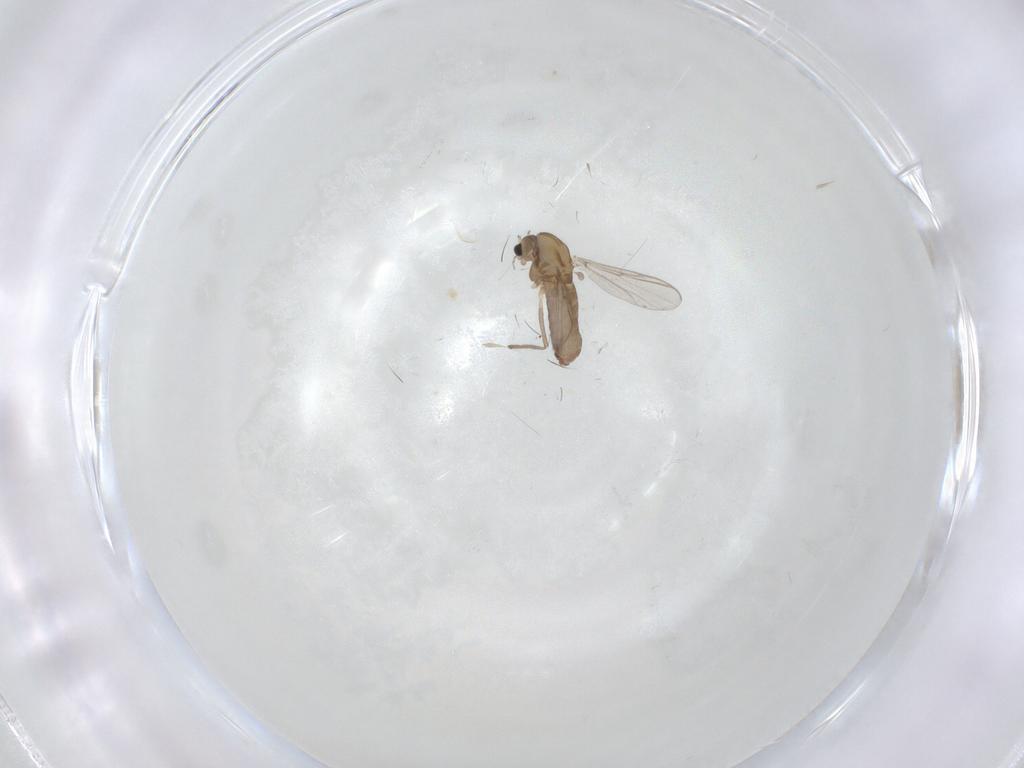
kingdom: Animalia
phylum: Arthropoda
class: Insecta
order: Diptera
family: Chironomidae
